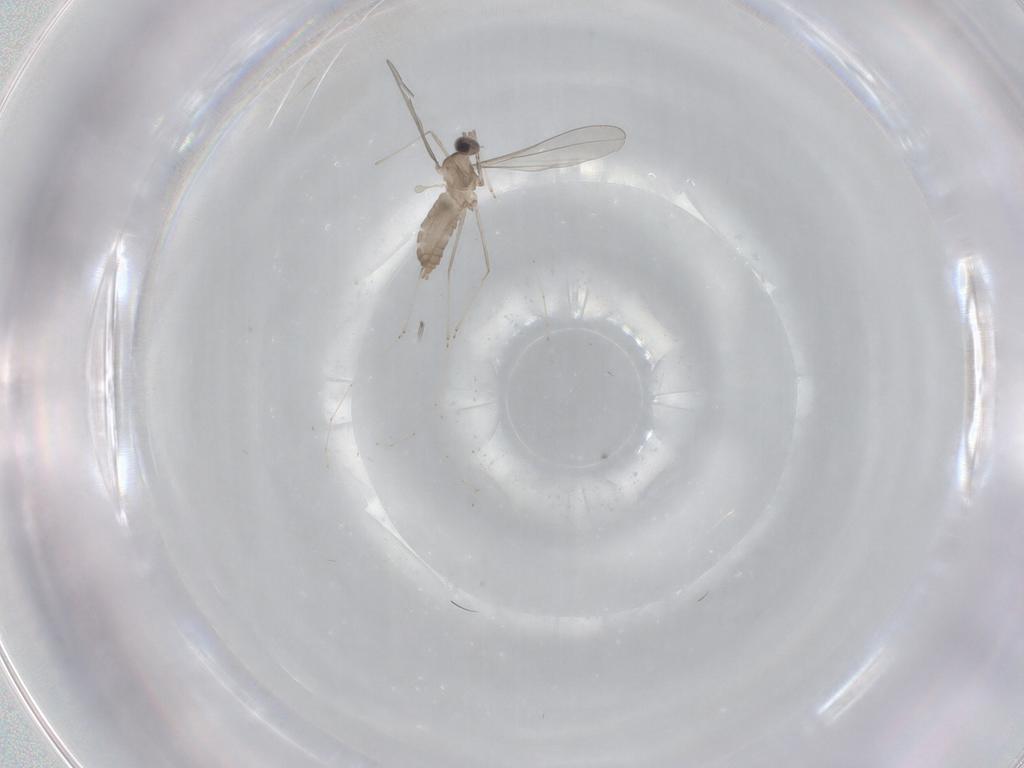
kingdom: Animalia
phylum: Arthropoda
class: Insecta
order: Diptera
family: Cecidomyiidae
